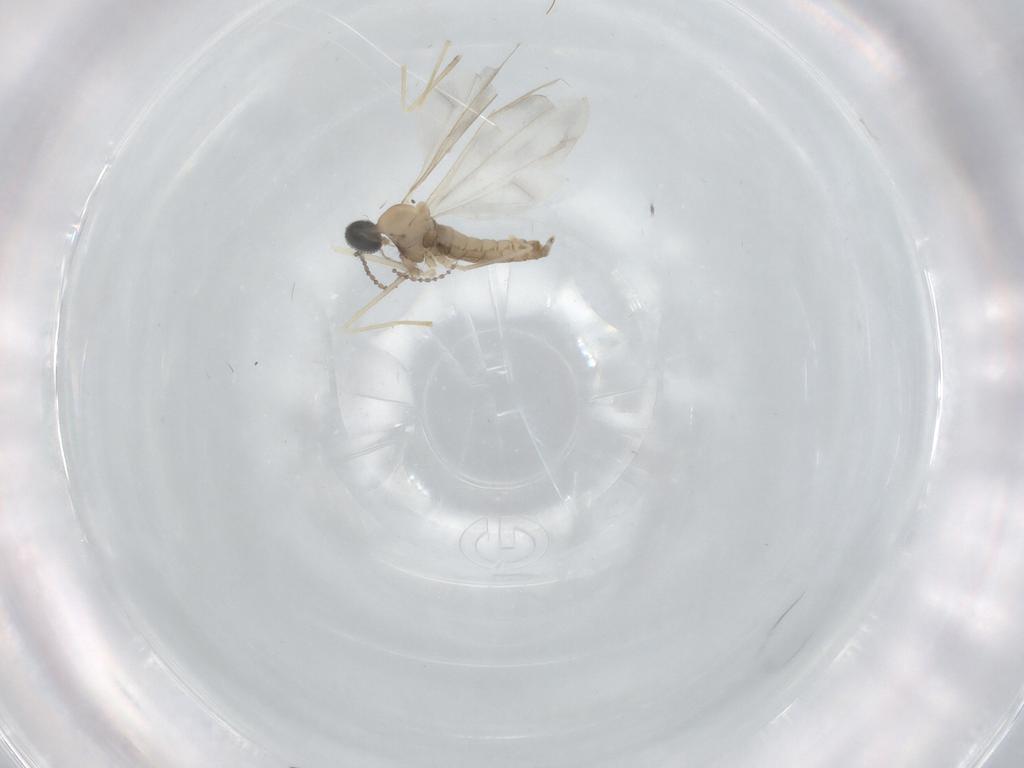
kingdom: Animalia
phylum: Arthropoda
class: Insecta
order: Diptera
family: Cecidomyiidae
